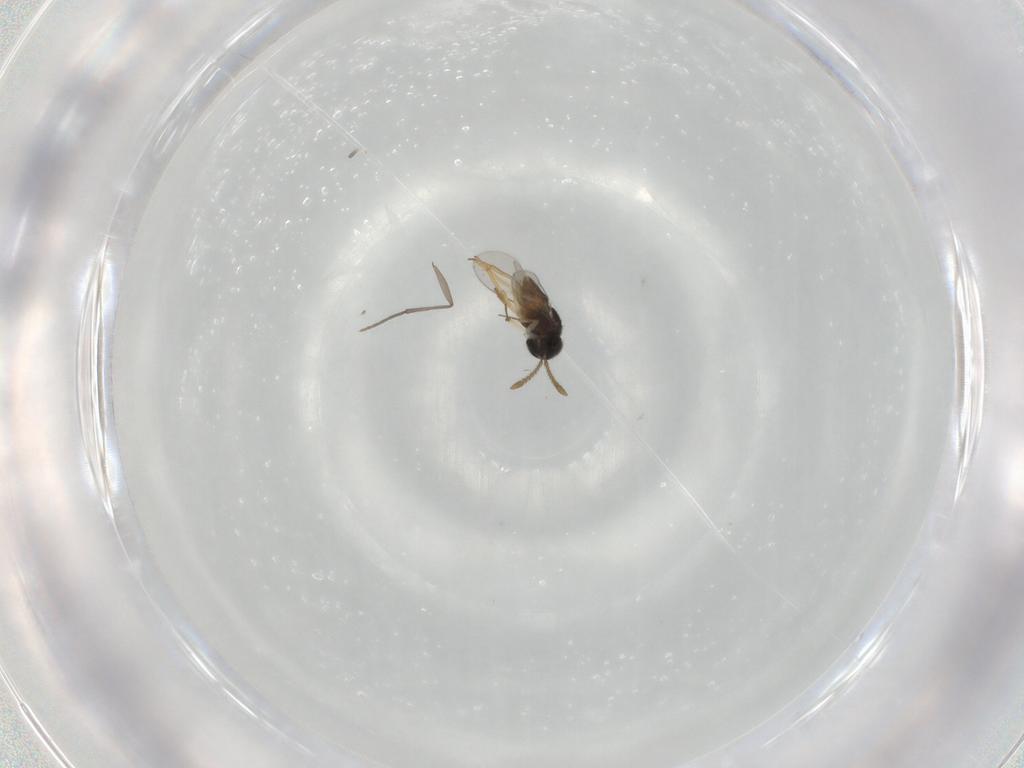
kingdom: Animalia
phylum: Arthropoda
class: Insecta
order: Hymenoptera
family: Encyrtidae
